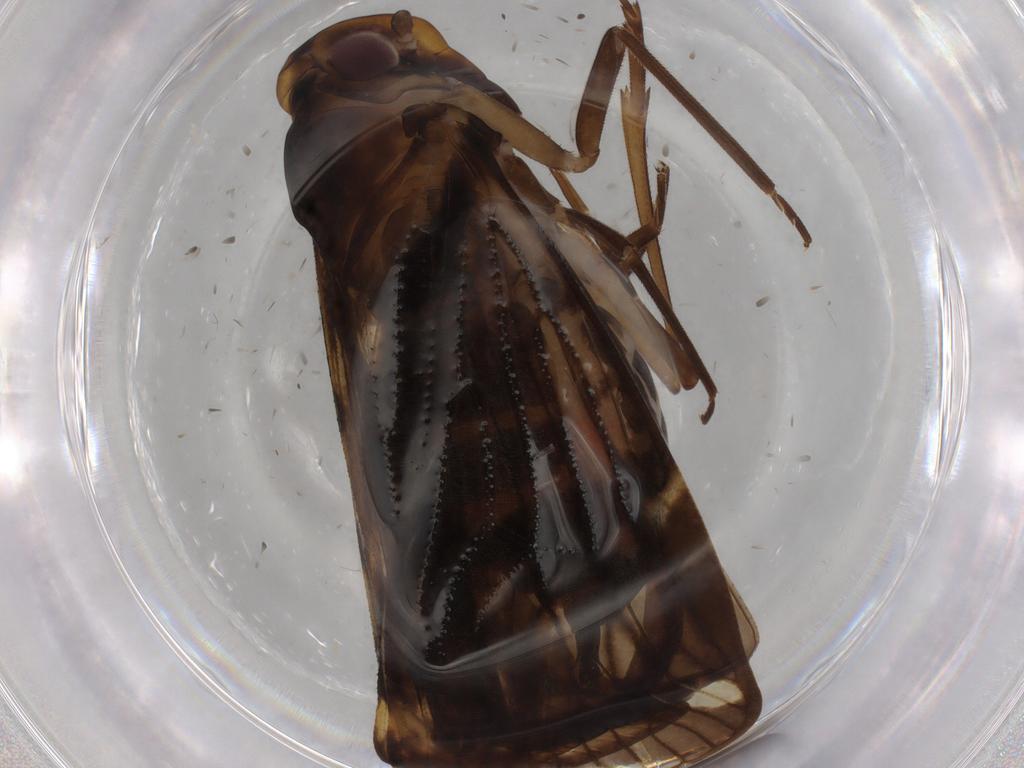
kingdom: Animalia
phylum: Arthropoda
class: Insecta
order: Hemiptera
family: Cixiidae
